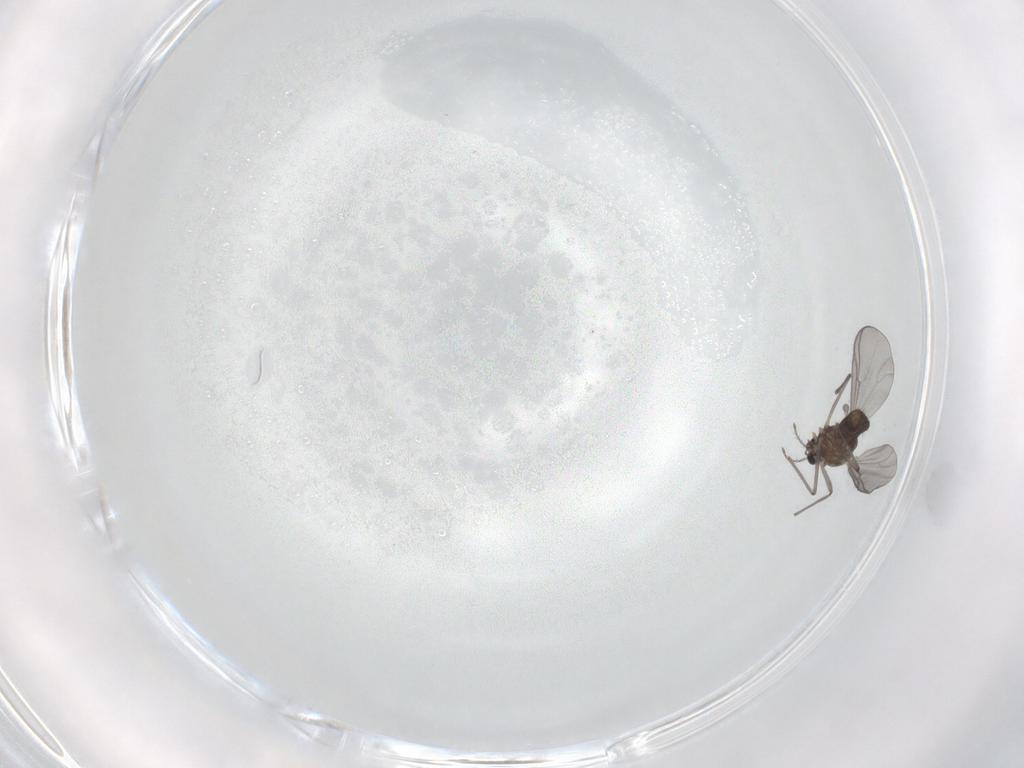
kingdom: Animalia
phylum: Arthropoda
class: Insecta
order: Diptera
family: Chironomidae
